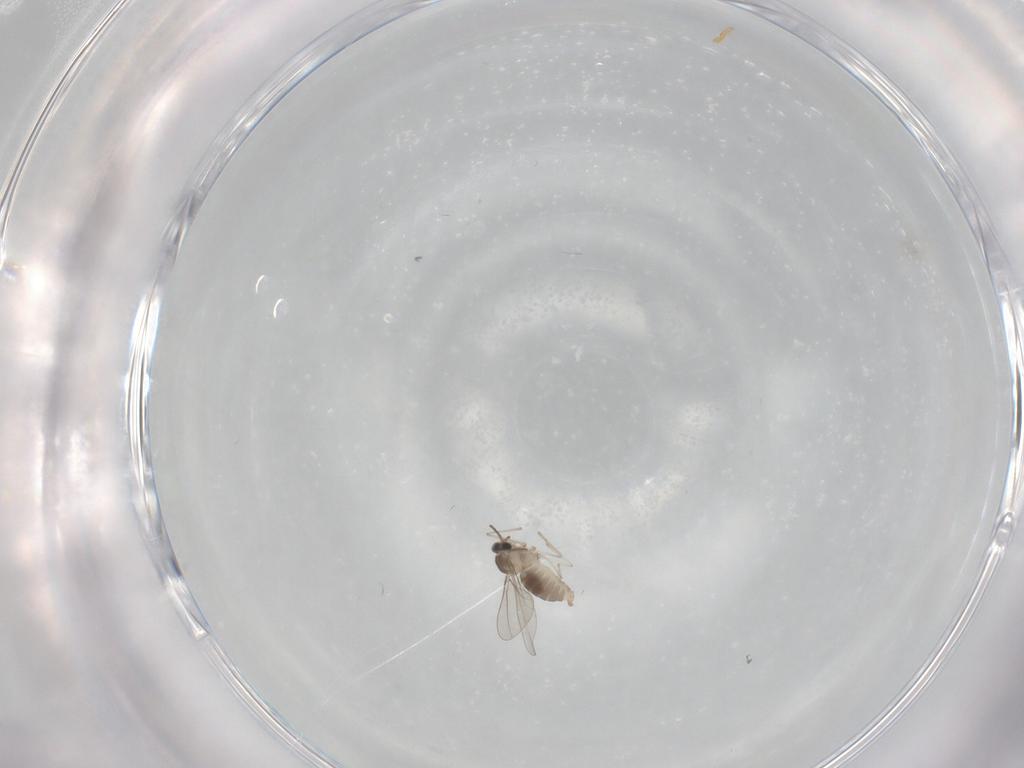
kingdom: Animalia
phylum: Arthropoda
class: Insecta
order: Diptera
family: Cecidomyiidae
